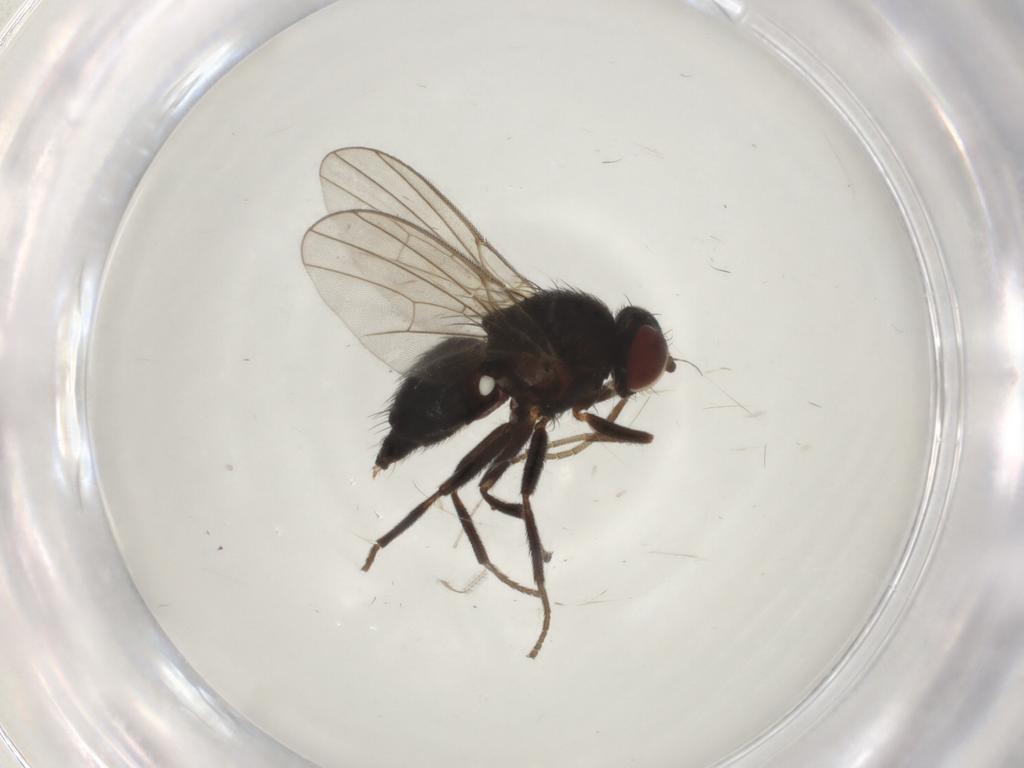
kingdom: Animalia
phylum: Arthropoda
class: Insecta
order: Diptera
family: Ceratopogonidae
